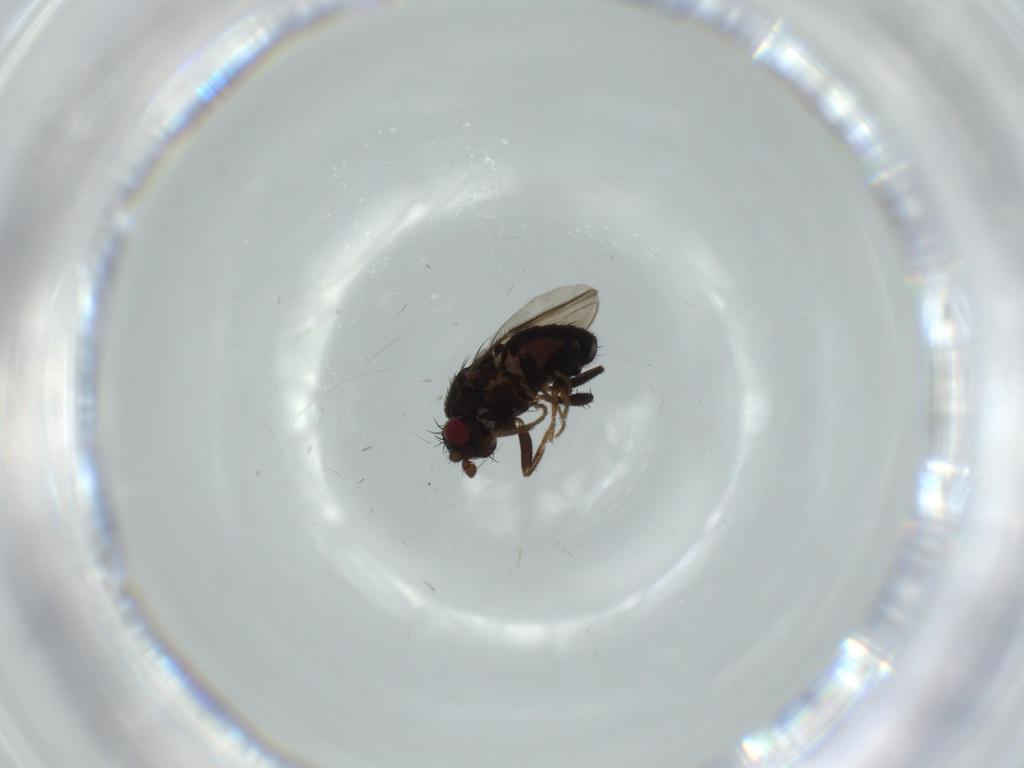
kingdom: Animalia
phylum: Arthropoda
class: Insecta
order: Diptera
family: Sphaeroceridae
